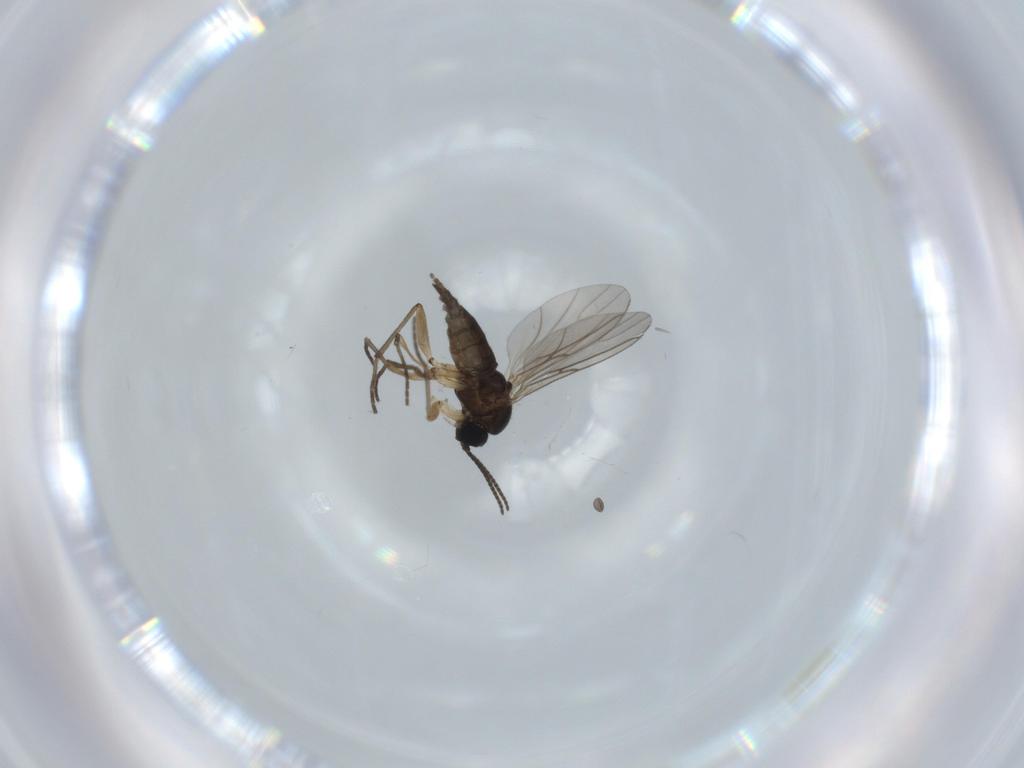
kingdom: Animalia
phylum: Arthropoda
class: Insecta
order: Diptera
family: Sciaridae
